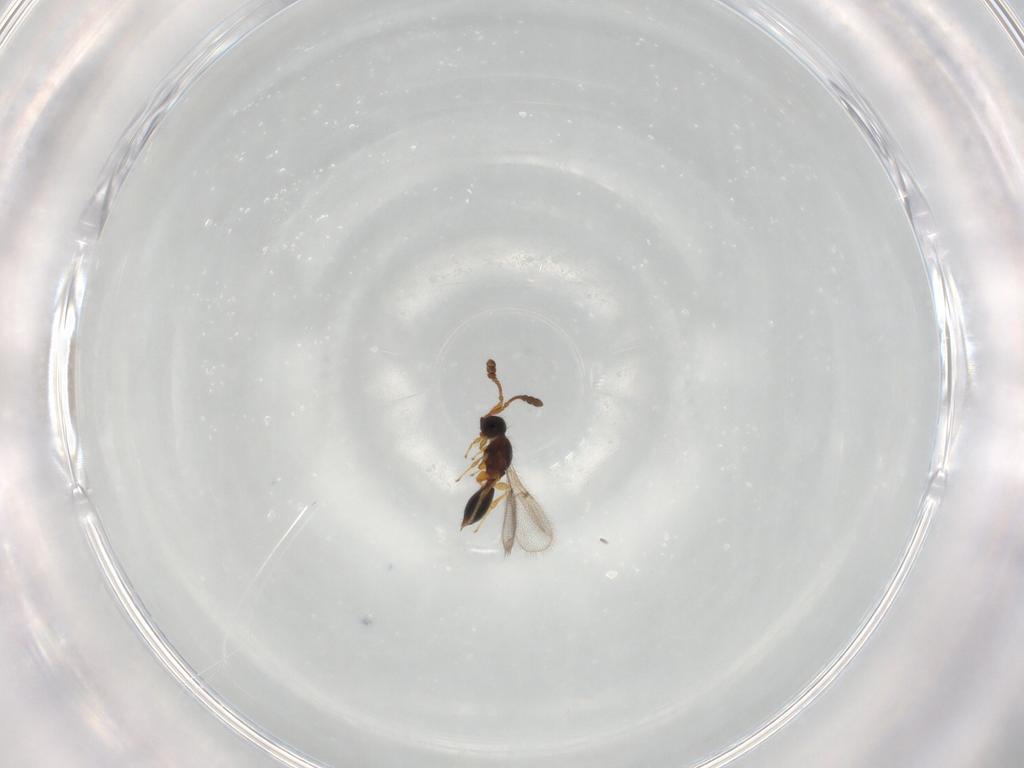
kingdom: Animalia
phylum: Arthropoda
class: Insecta
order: Hymenoptera
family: Diapriidae
